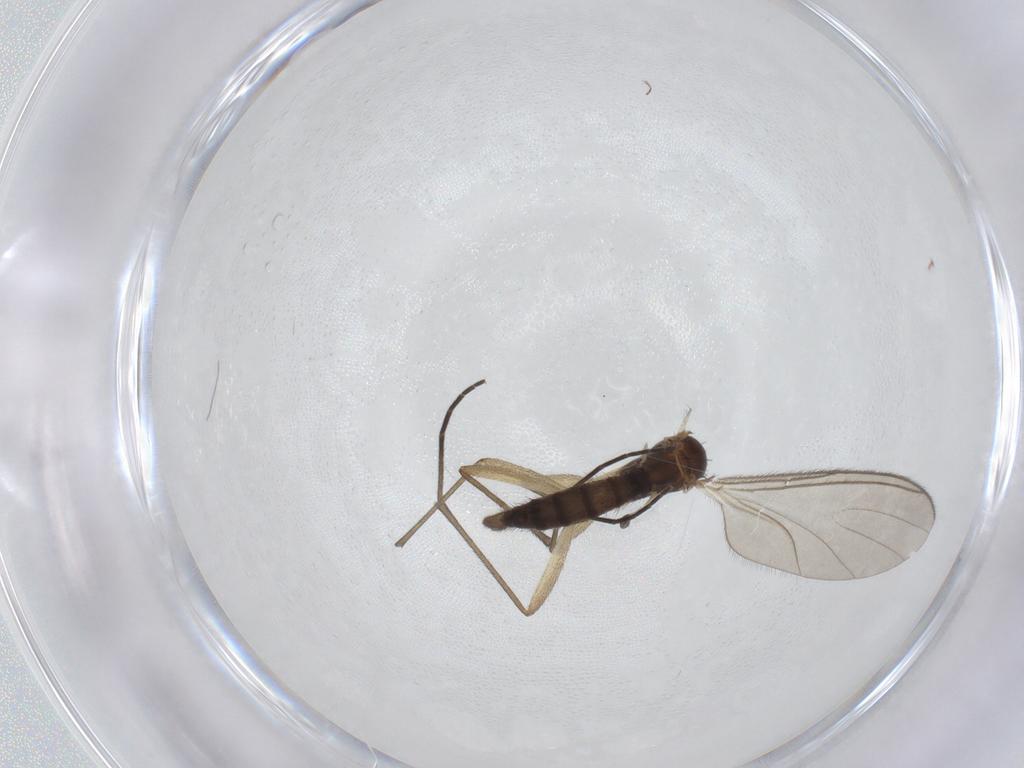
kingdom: Animalia
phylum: Arthropoda
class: Insecta
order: Diptera
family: Sciaridae
